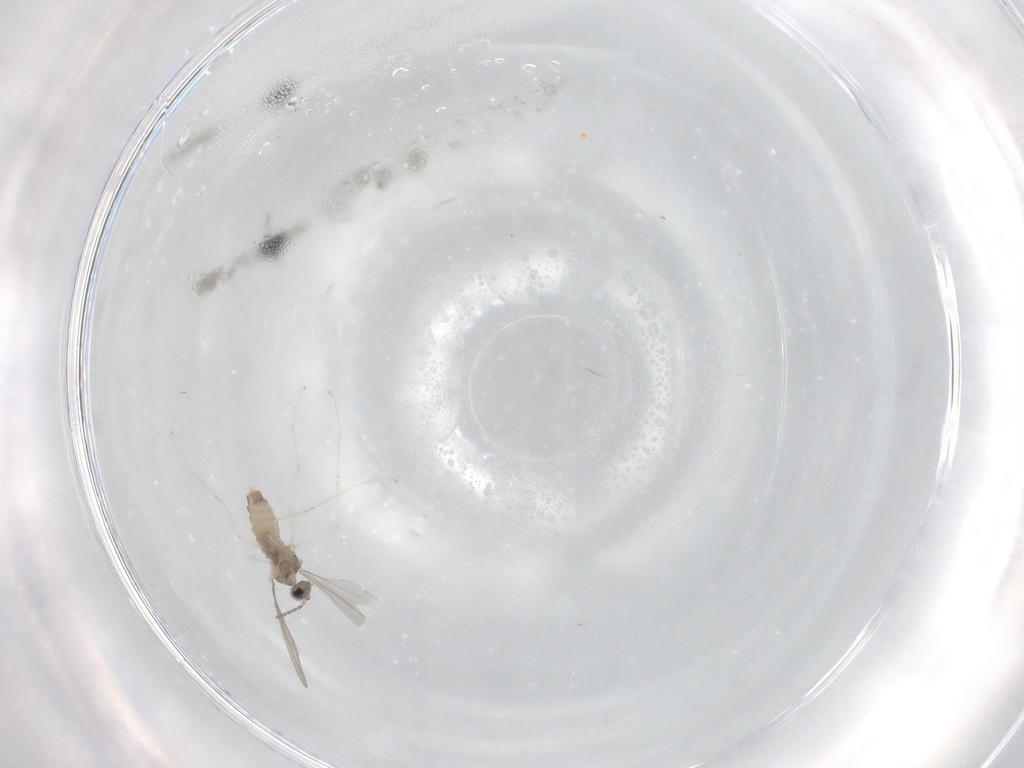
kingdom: Animalia
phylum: Arthropoda
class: Insecta
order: Diptera
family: Cecidomyiidae
